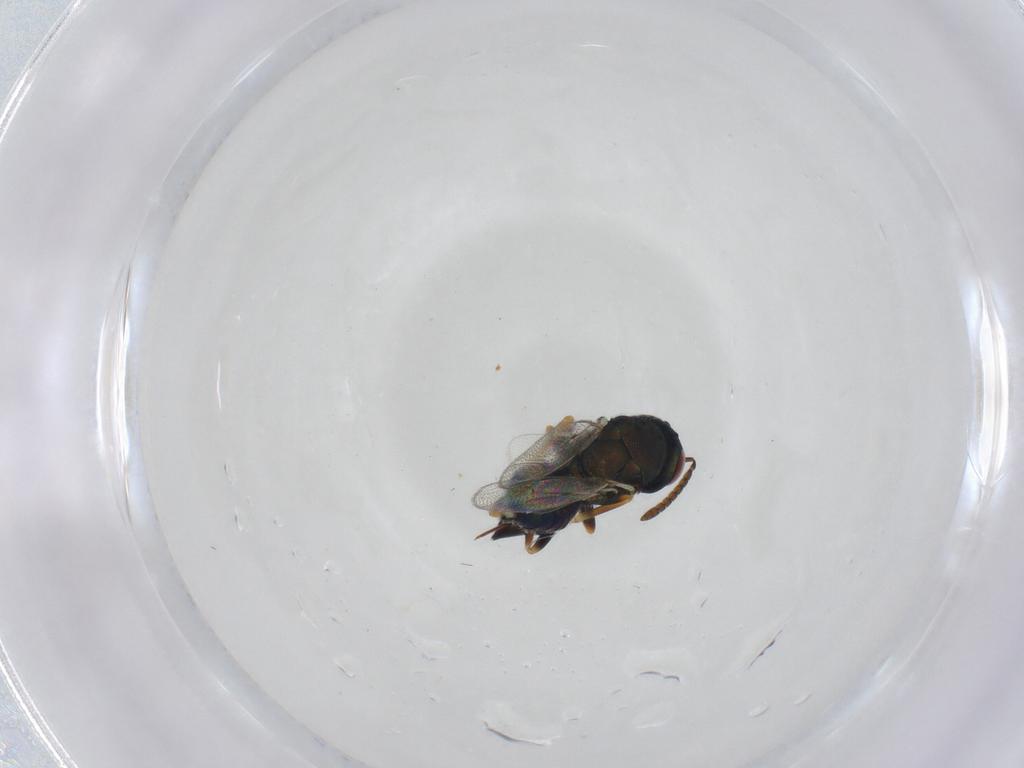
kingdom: Animalia
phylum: Arthropoda
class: Insecta
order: Hymenoptera
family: Pteromalidae
